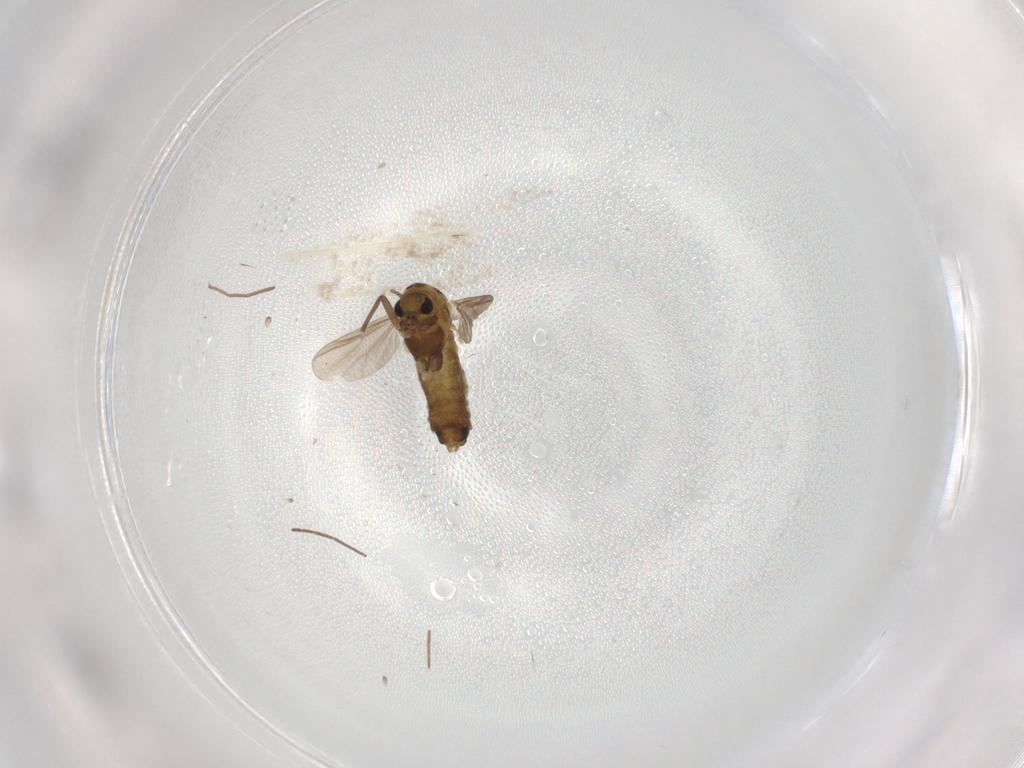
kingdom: Animalia
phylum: Arthropoda
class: Insecta
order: Diptera
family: Chironomidae
